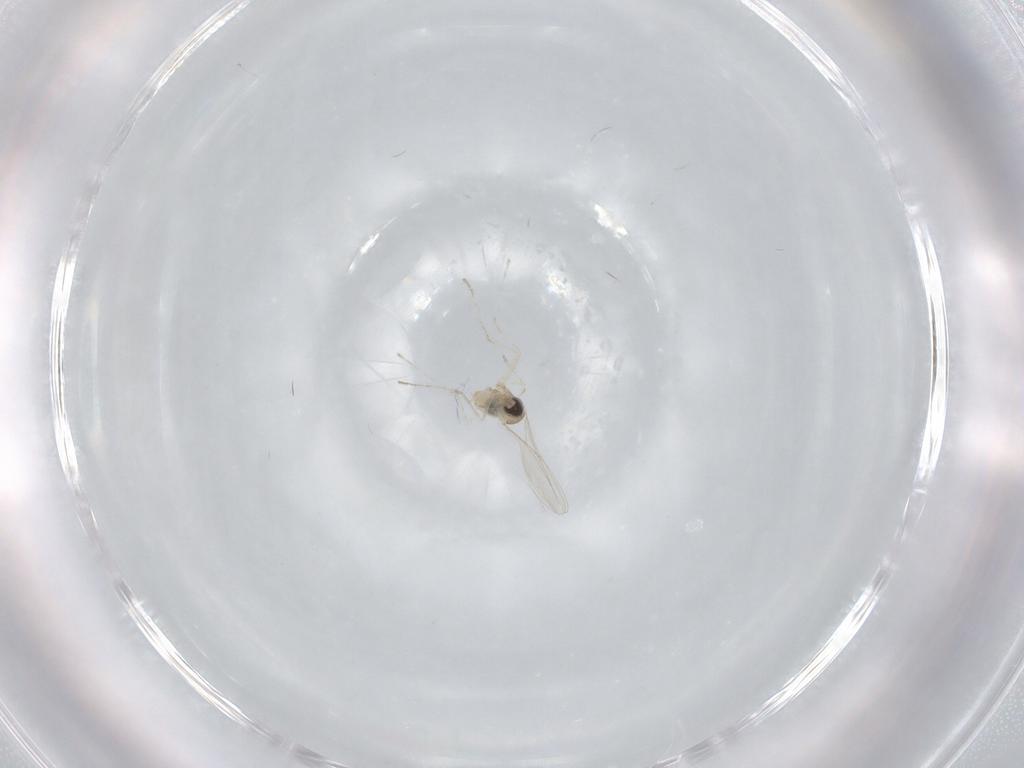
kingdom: Animalia
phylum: Arthropoda
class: Insecta
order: Diptera
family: Cecidomyiidae
